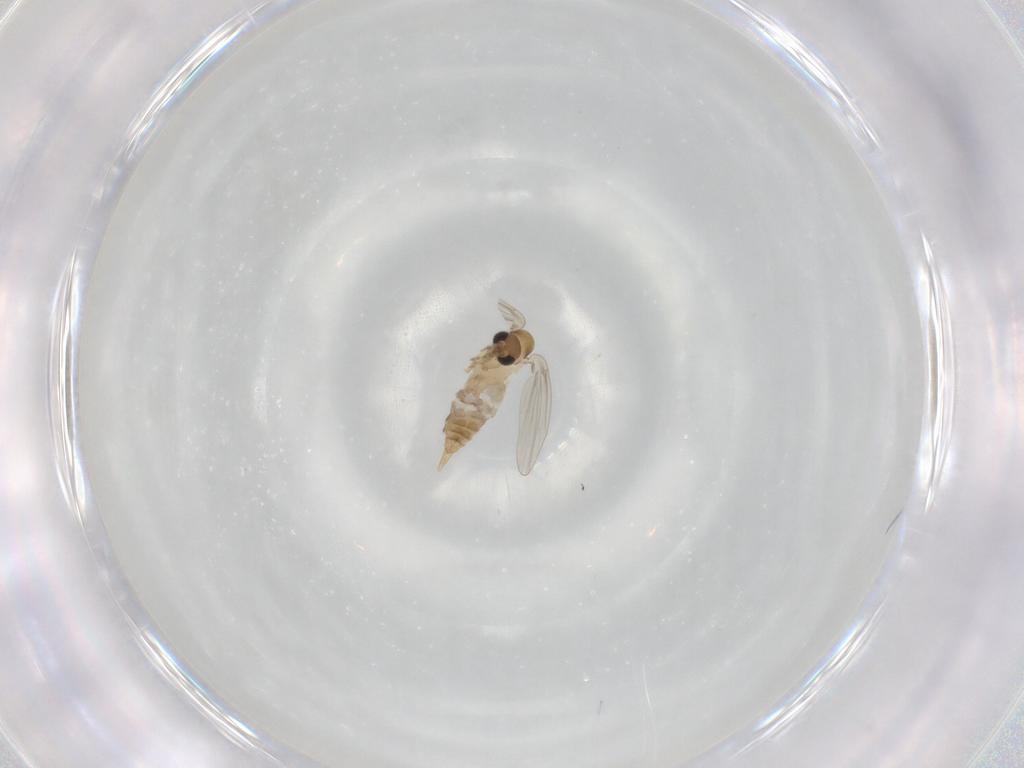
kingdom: Animalia
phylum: Arthropoda
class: Insecta
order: Diptera
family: Psychodidae
